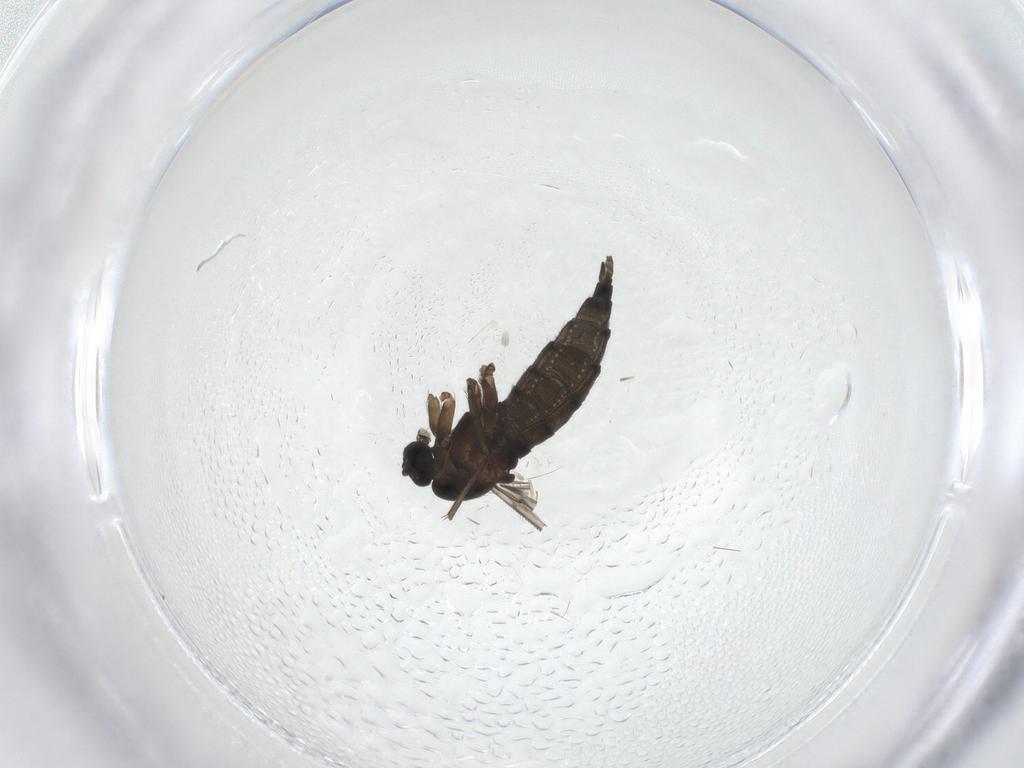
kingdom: Animalia
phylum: Arthropoda
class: Insecta
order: Diptera
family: Sciaridae
